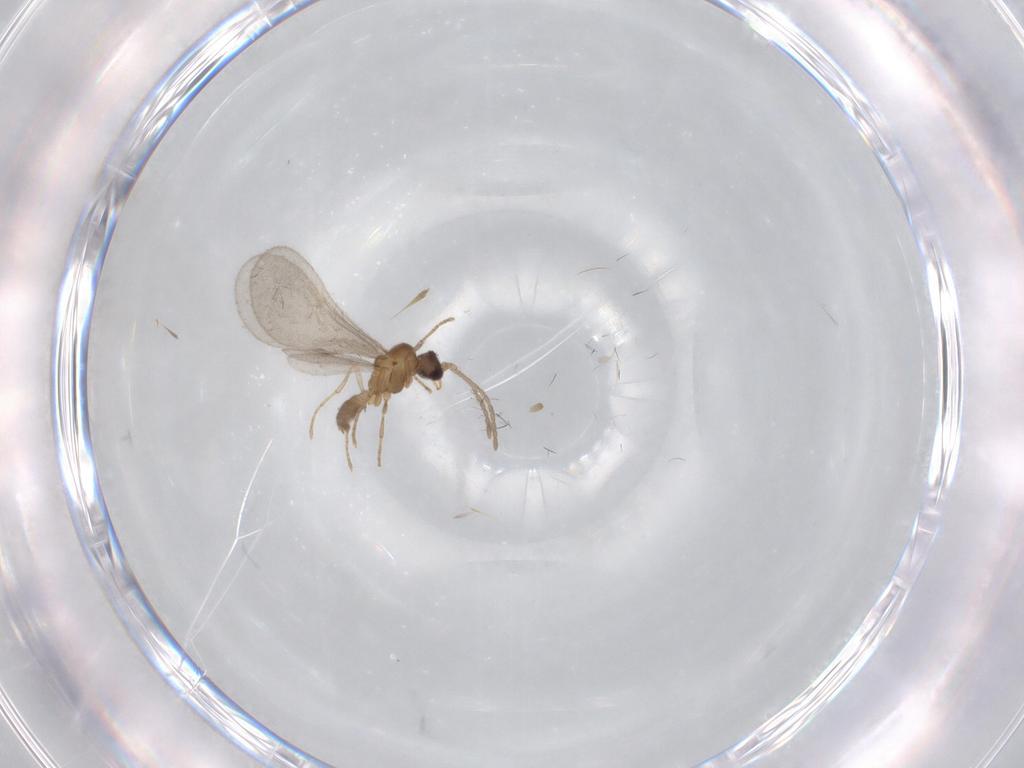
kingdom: Animalia
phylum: Arthropoda
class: Insecta
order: Hymenoptera
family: Formicidae
